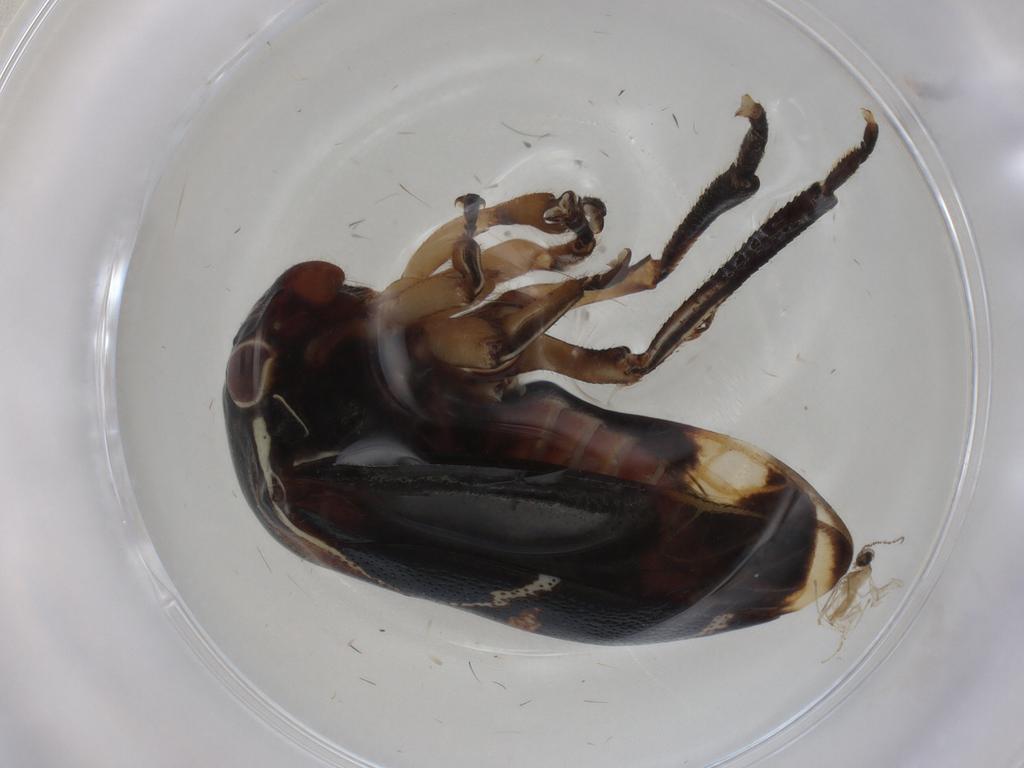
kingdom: Animalia
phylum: Arthropoda
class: Insecta
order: Hemiptera
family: Membracidae
